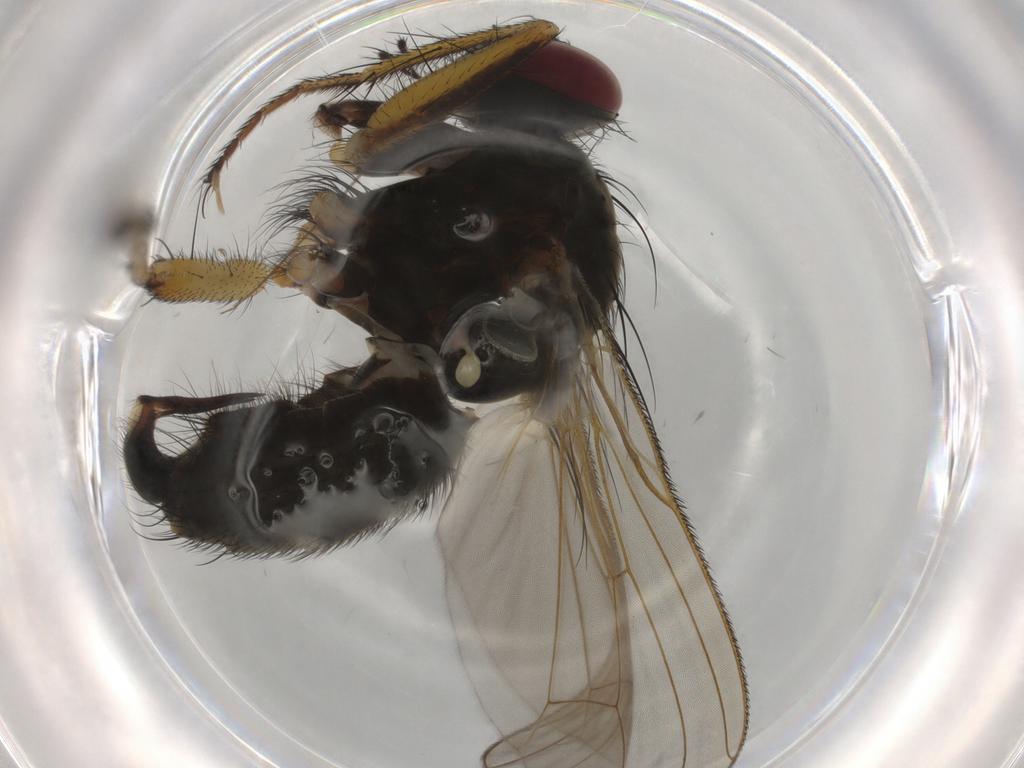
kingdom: Animalia
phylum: Arthropoda
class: Insecta
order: Diptera
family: Muscidae
